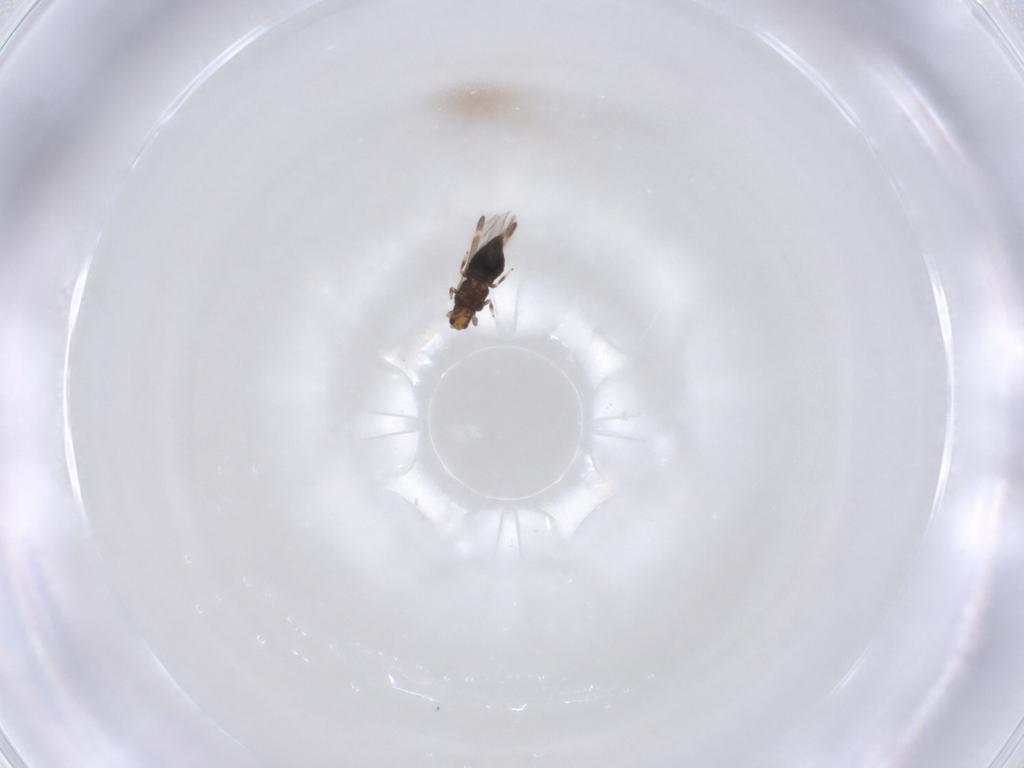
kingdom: Animalia
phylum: Arthropoda
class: Insecta
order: Thysanoptera
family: Thripidae
